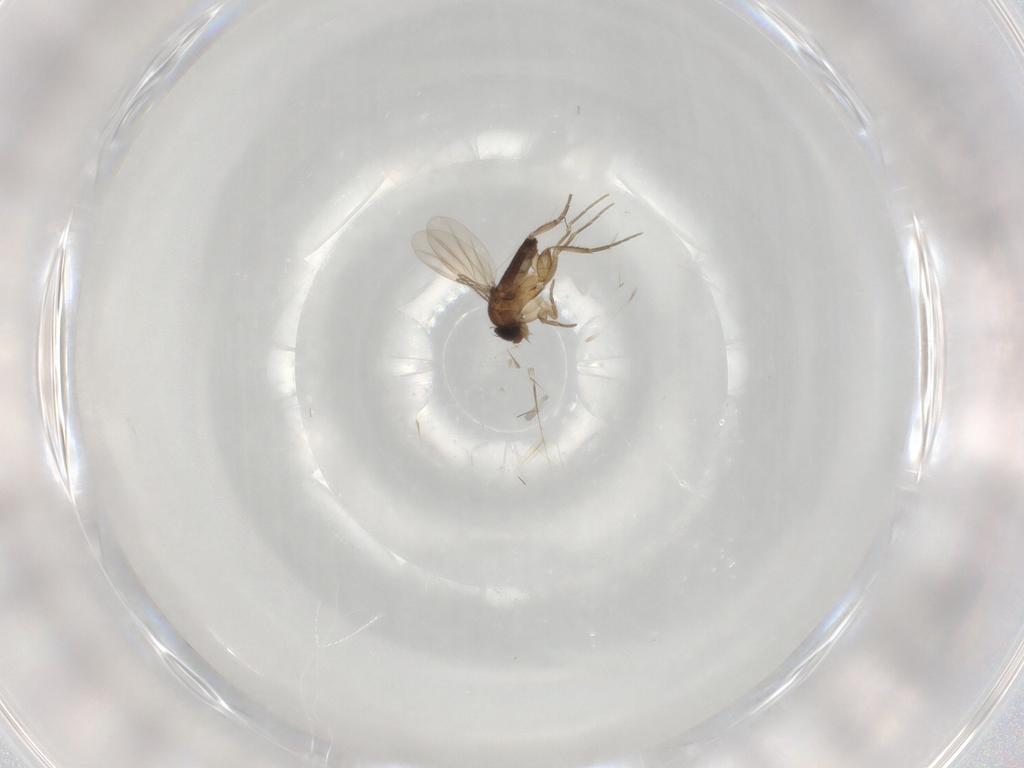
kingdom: Animalia
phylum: Arthropoda
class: Insecta
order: Diptera
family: Phoridae
